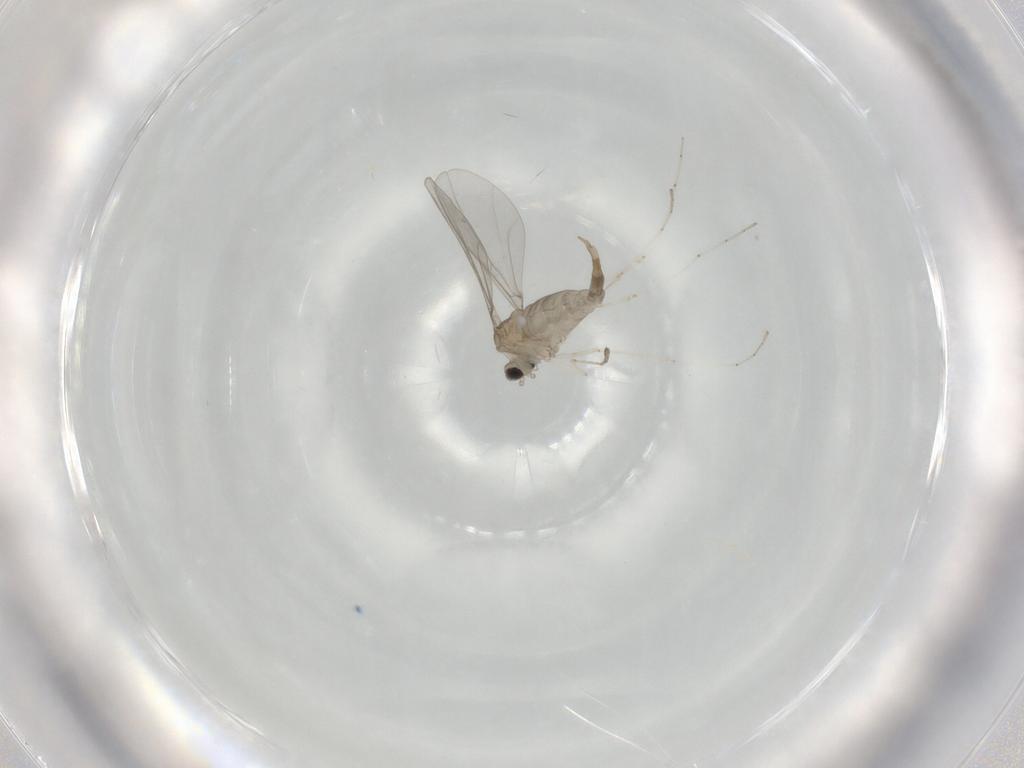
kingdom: Animalia
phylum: Arthropoda
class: Insecta
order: Diptera
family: Cecidomyiidae
